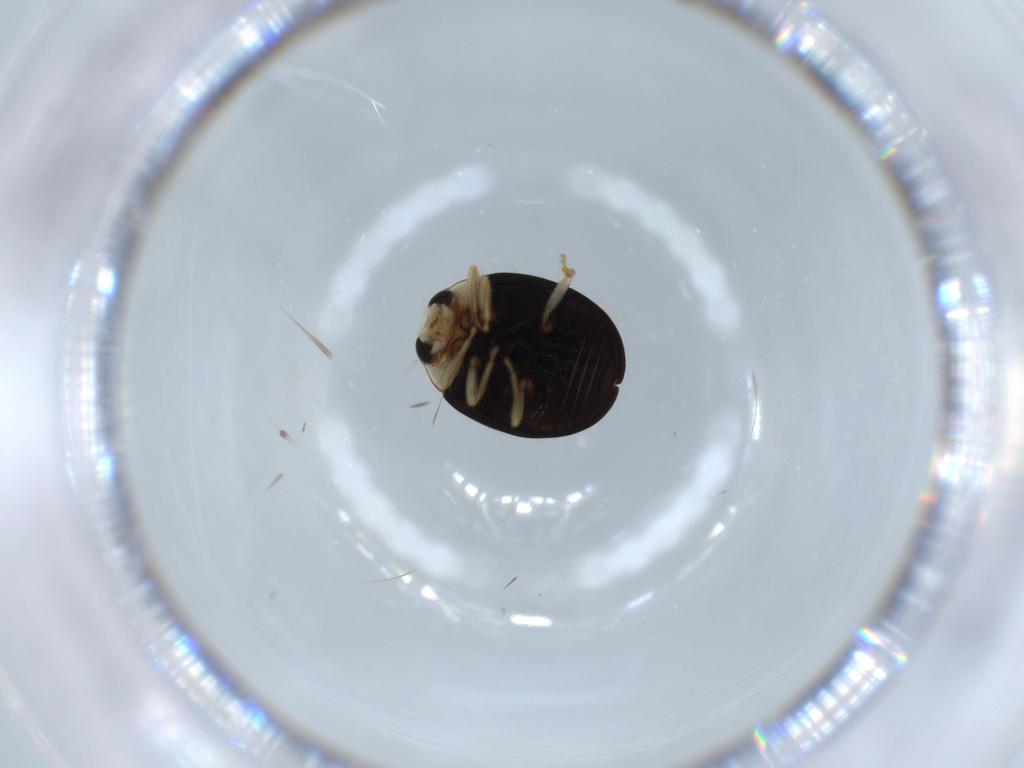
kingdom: Animalia
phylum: Arthropoda
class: Insecta
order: Coleoptera
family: Coccinellidae
